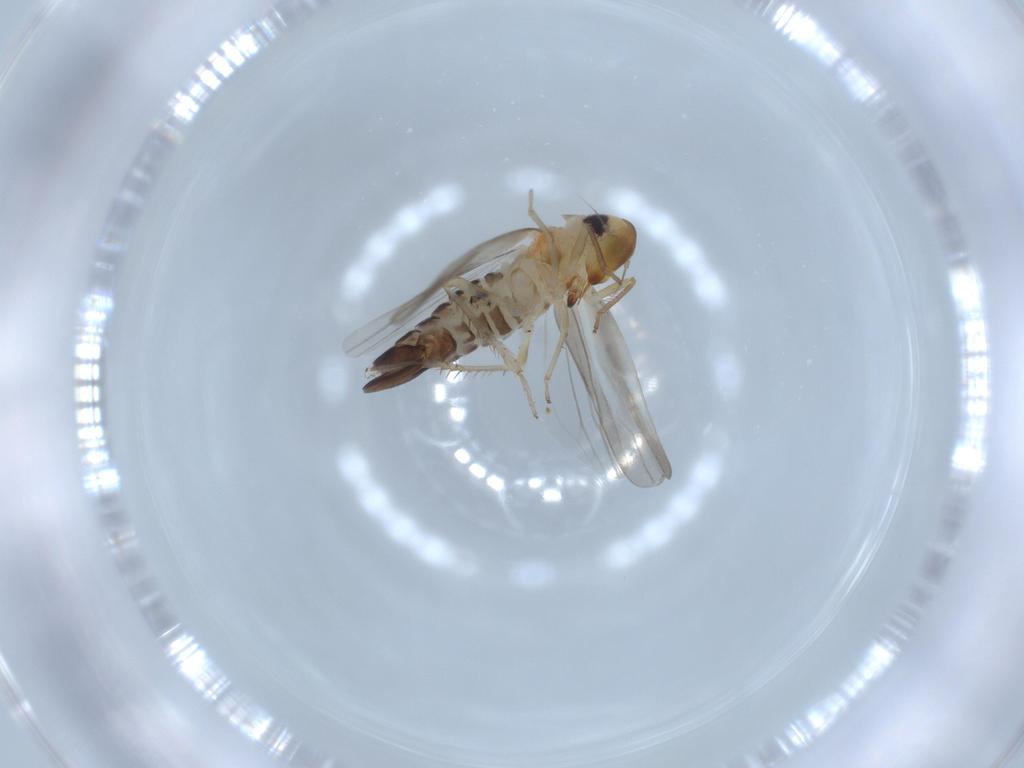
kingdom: Animalia
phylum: Arthropoda
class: Insecta
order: Hemiptera
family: Cicadellidae
